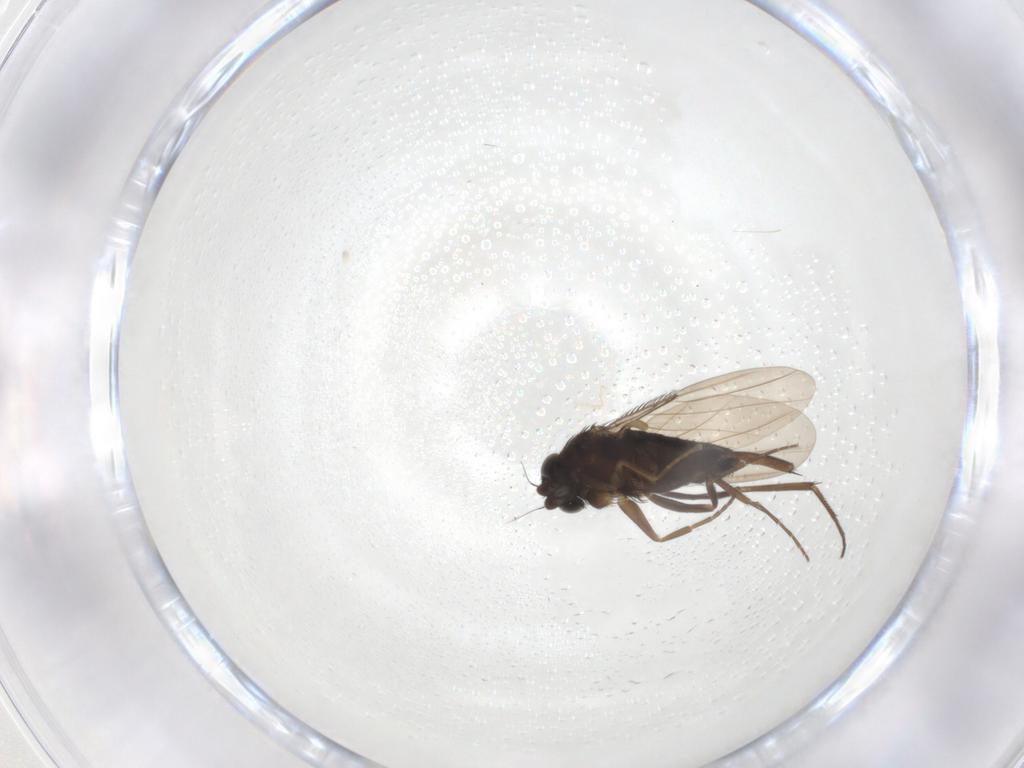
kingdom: Animalia
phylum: Arthropoda
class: Insecta
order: Diptera
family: Phoridae
